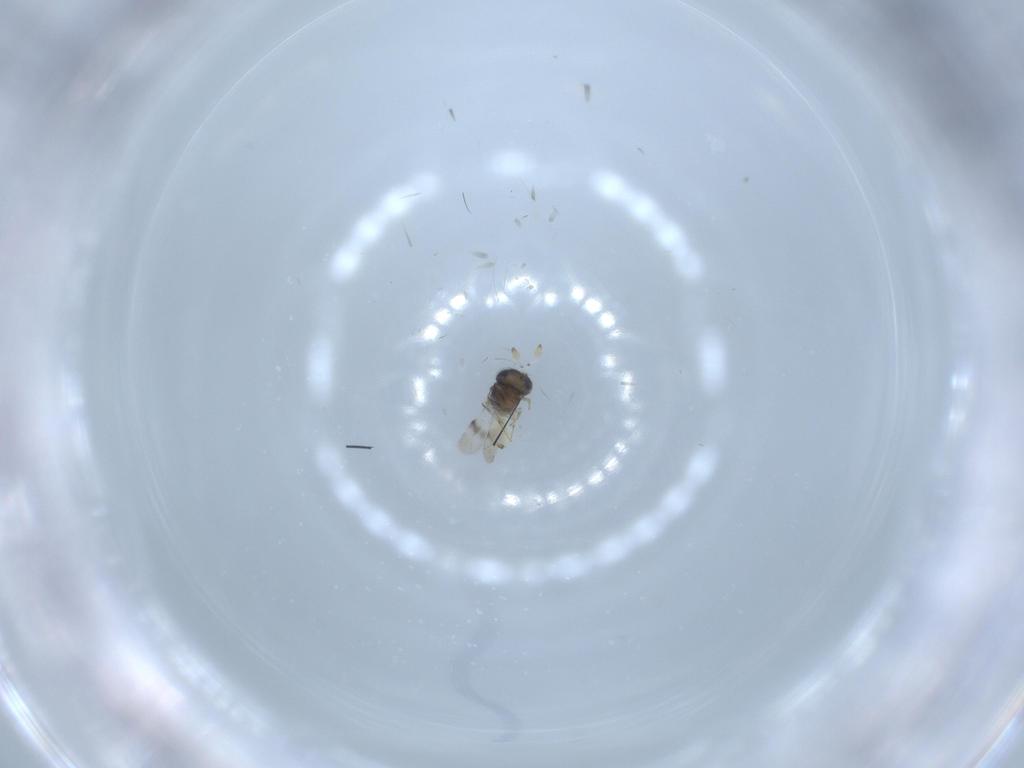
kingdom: Animalia
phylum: Arthropoda
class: Insecta
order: Hymenoptera
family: Scelionidae
